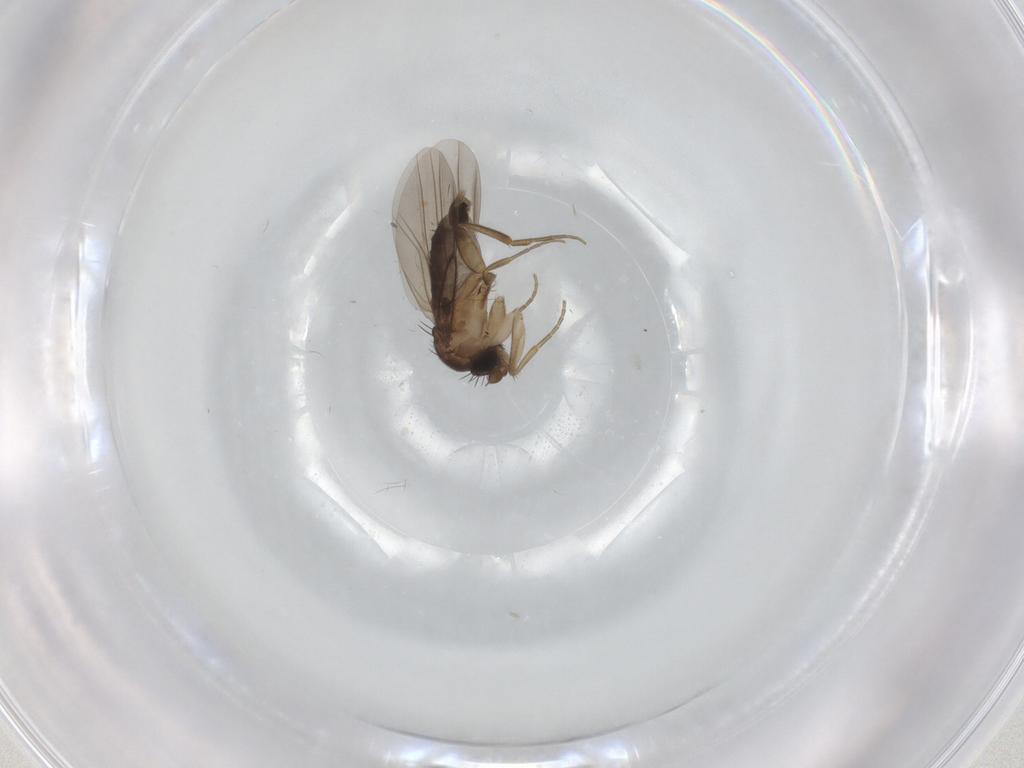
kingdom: Animalia
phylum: Arthropoda
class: Insecta
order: Diptera
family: Phoridae
